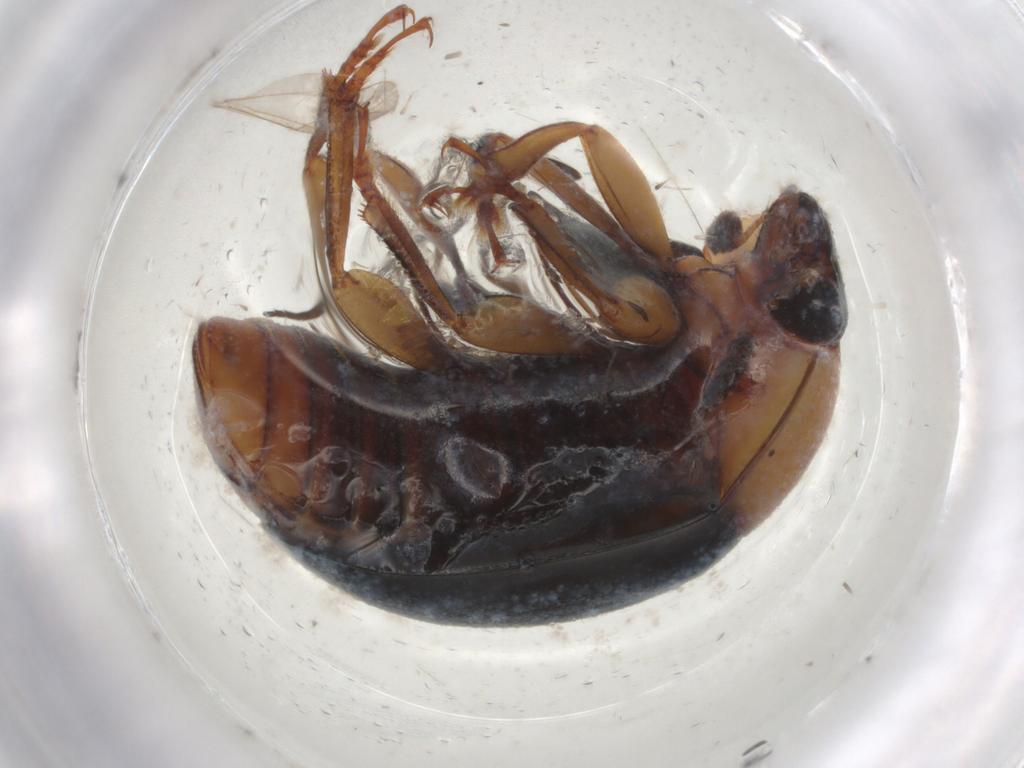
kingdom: Animalia
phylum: Arthropoda
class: Insecta
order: Coleoptera
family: Nitidulidae
